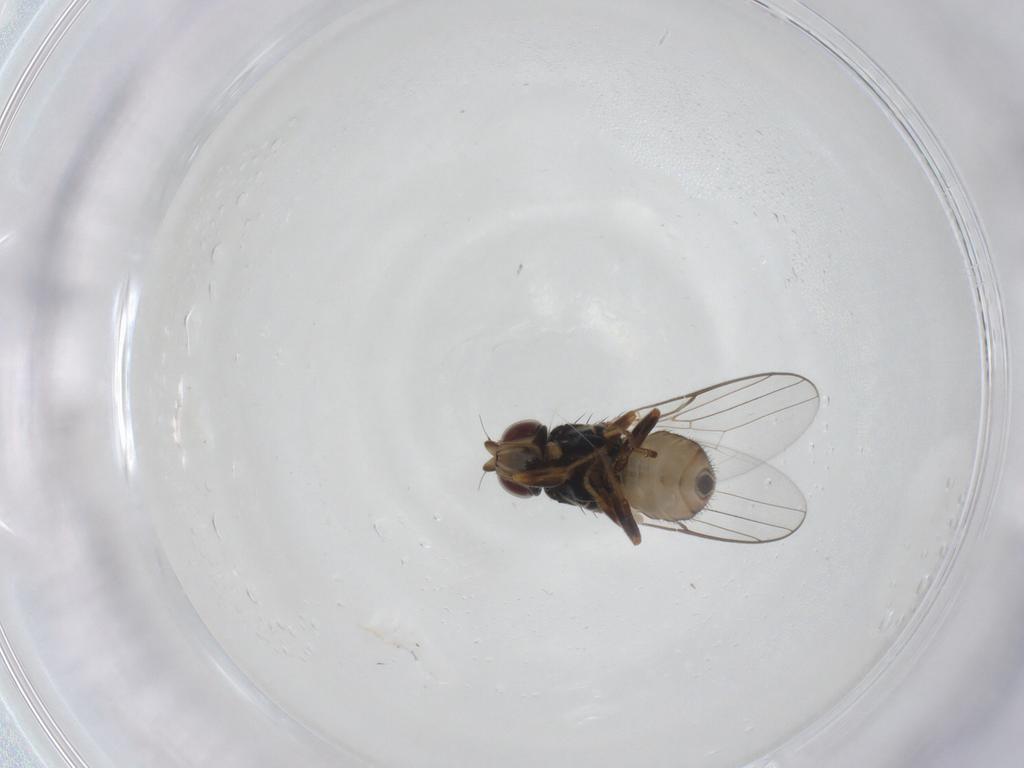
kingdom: Animalia
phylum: Arthropoda
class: Insecta
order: Diptera
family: Chloropidae
